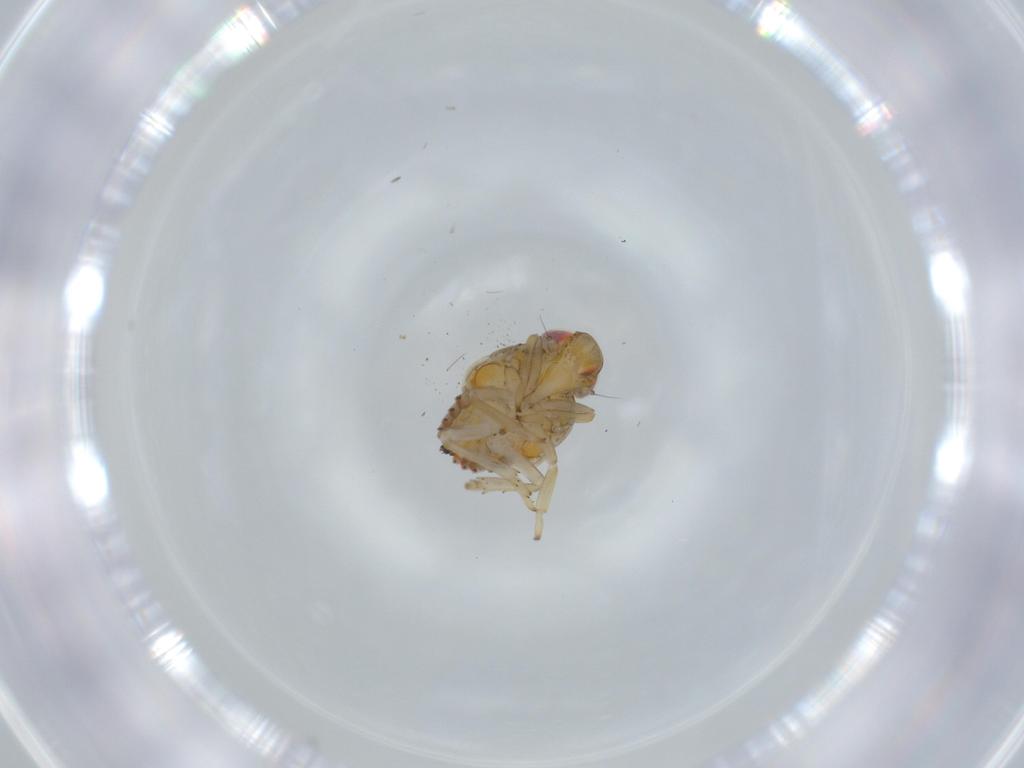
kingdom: Animalia
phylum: Arthropoda
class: Insecta
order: Hemiptera
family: Issidae
